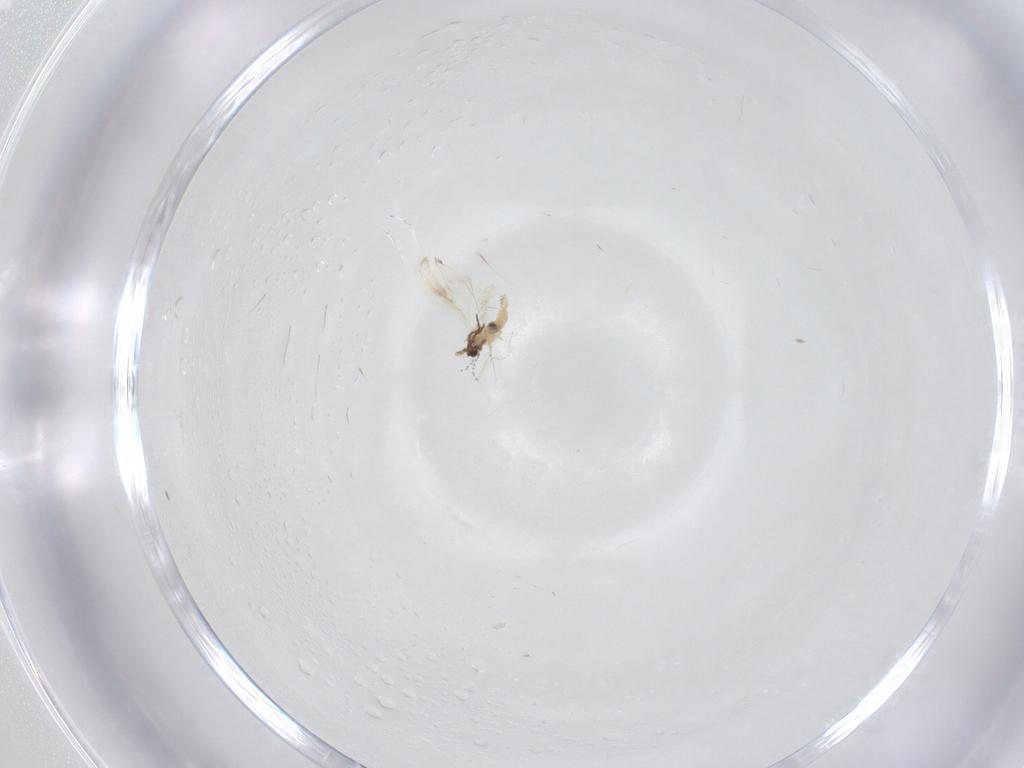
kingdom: Animalia
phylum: Arthropoda
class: Insecta
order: Diptera
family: Cecidomyiidae
